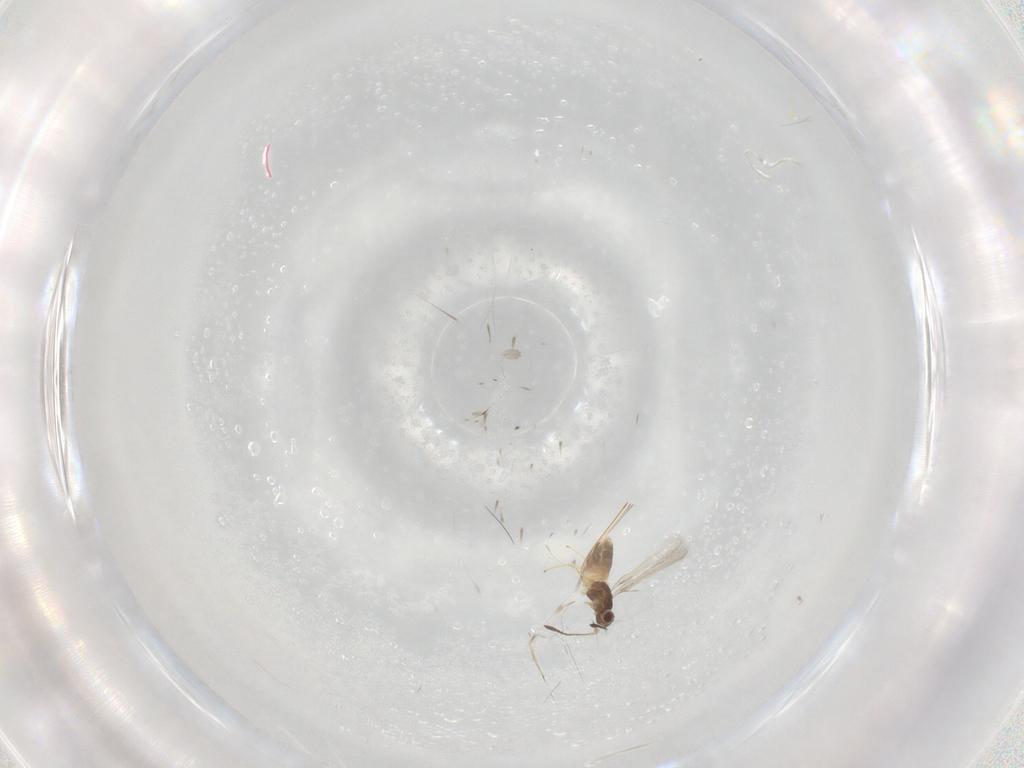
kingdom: Animalia
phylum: Arthropoda
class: Insecta
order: Hymenoptera
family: Mymaridae
